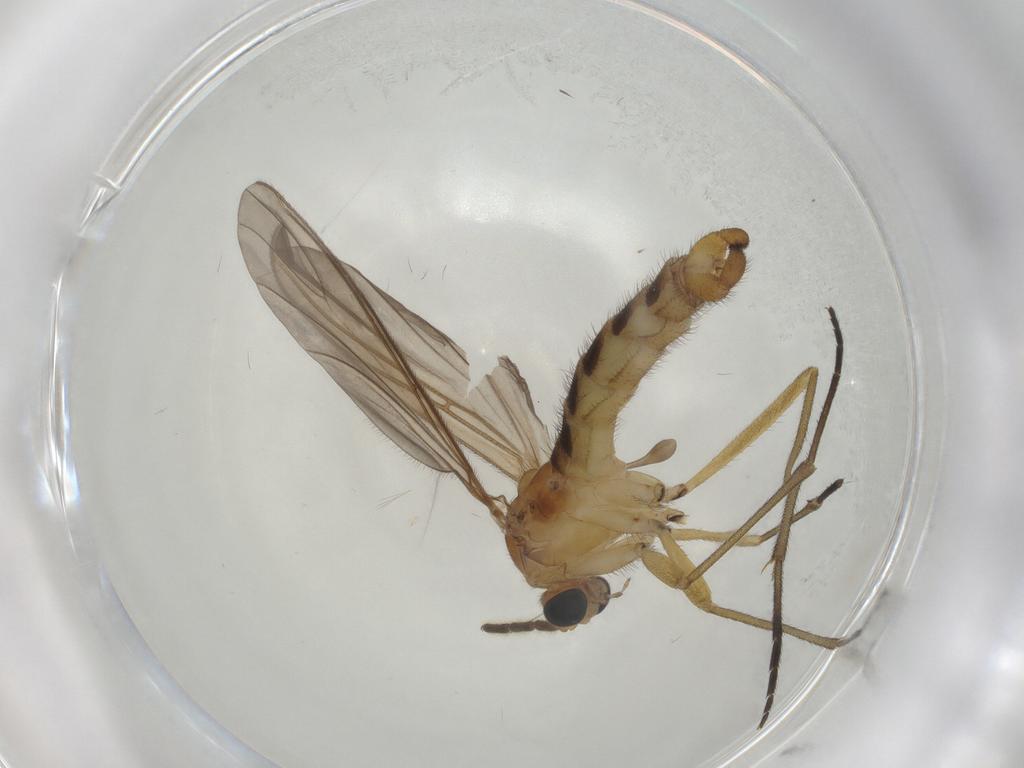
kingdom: Animalia
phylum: Arthropoda
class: Insecta
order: Diptera
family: Sciaridae
